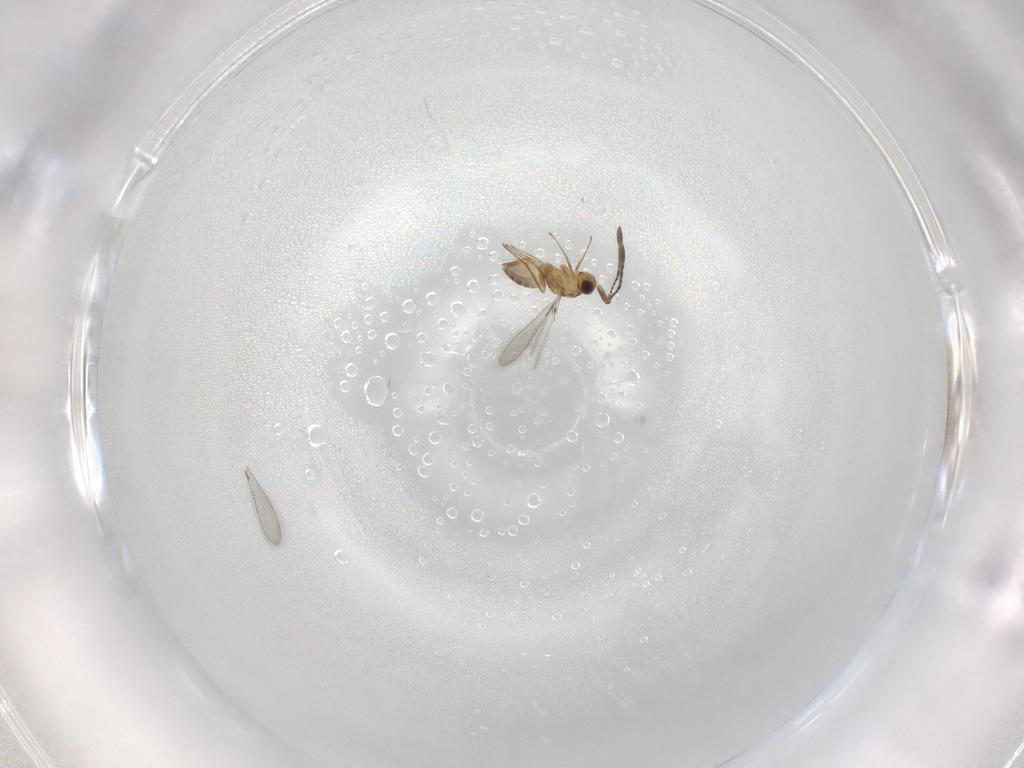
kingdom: Animalia
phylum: Arthropoda
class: Insecta
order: Hymenoptera
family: Mymaridae
